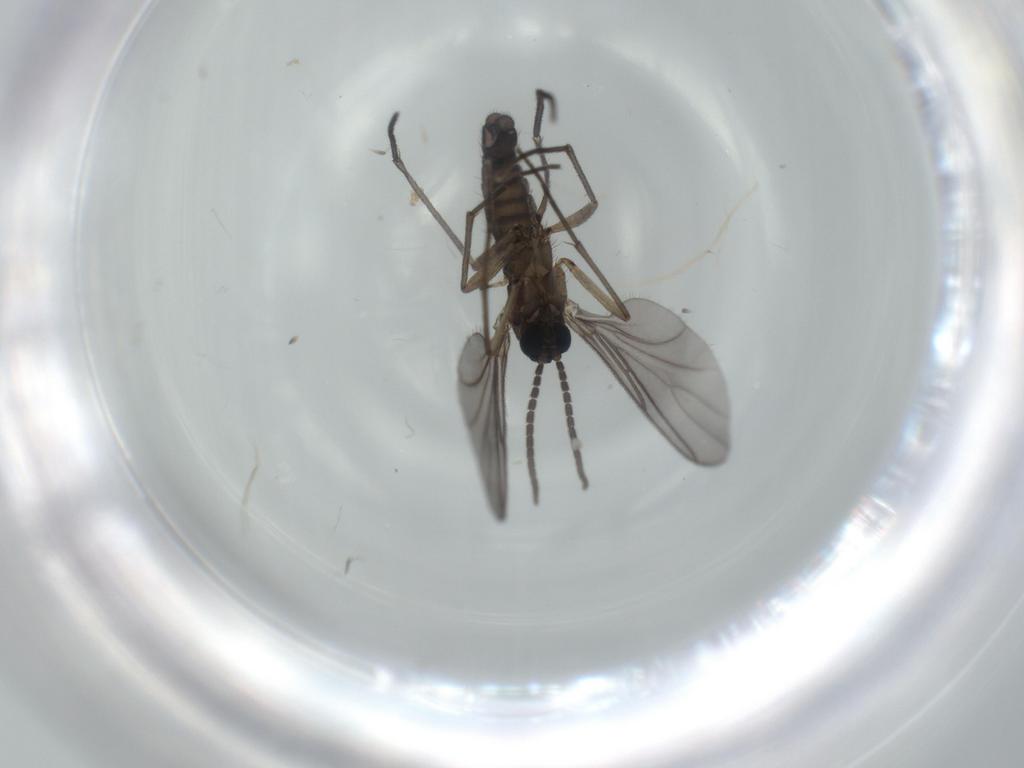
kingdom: Animalia
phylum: Arthropoda
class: Insecta
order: Diptera
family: Sciaridae
